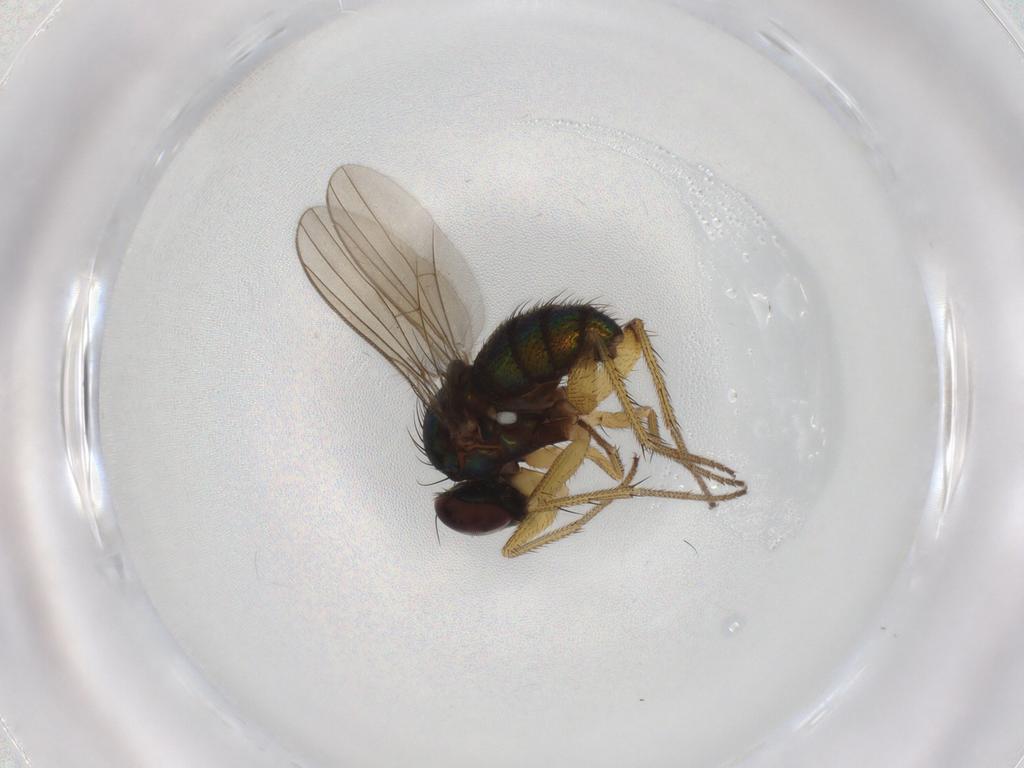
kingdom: Animalia
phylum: Arthropoda
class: Insecta
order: Diptera
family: Dolichopodidae
